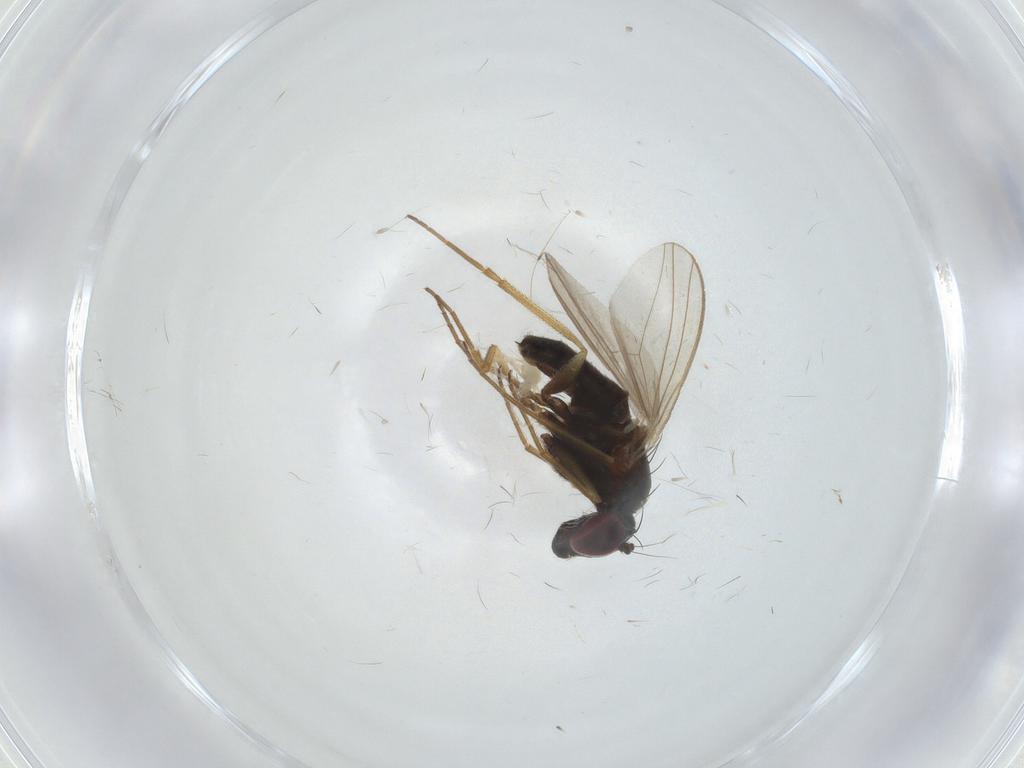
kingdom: Animalia
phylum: Arthropoda
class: Insecta
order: Diptera
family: Dolichopodidae
